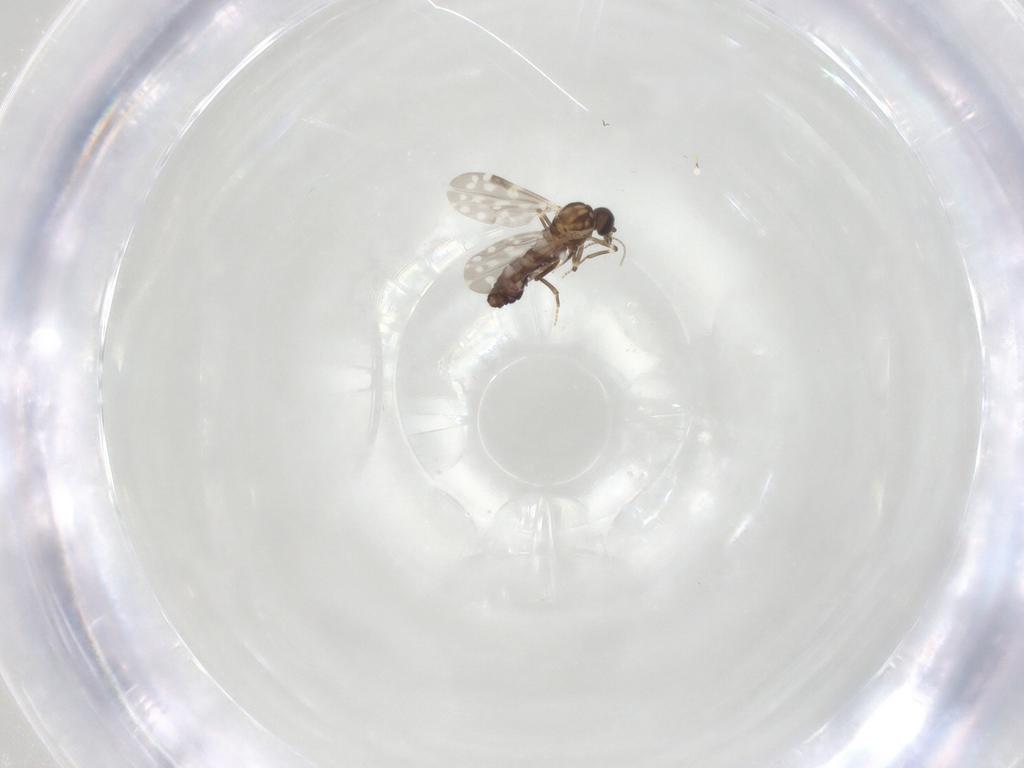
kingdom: Animalia
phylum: Arthropoda
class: Insecta
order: Diptera
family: Ceratopogonidae
